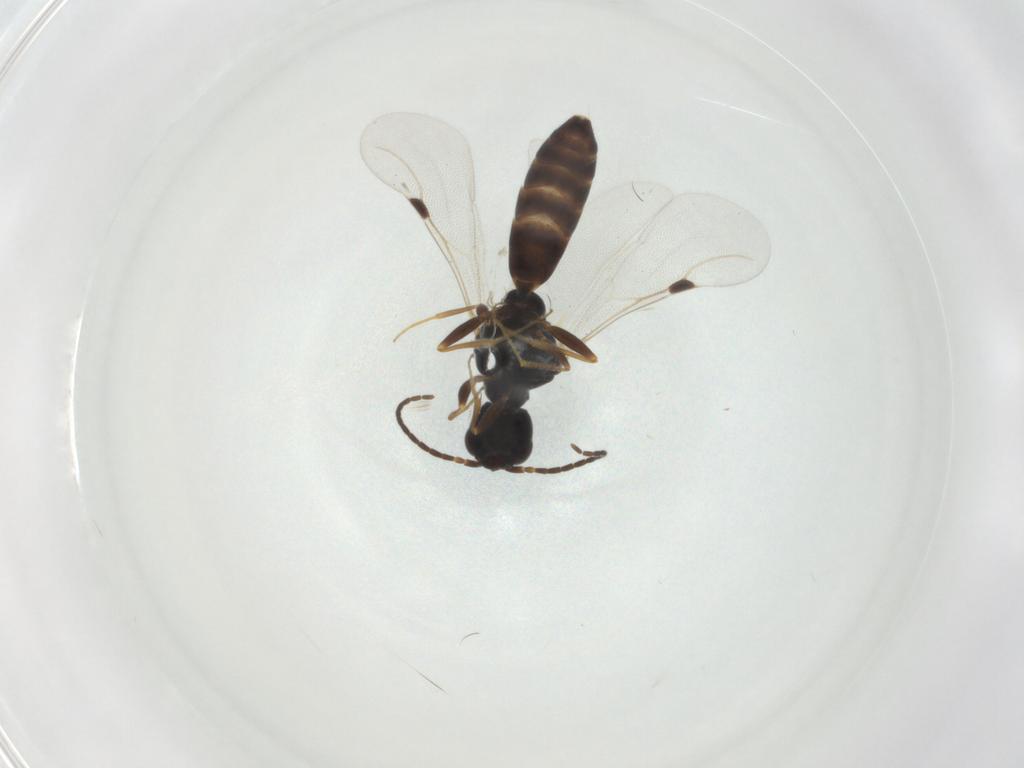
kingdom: Animalia
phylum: Arthropoda
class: Insecta
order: Hymenoptera
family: Bethylidae
